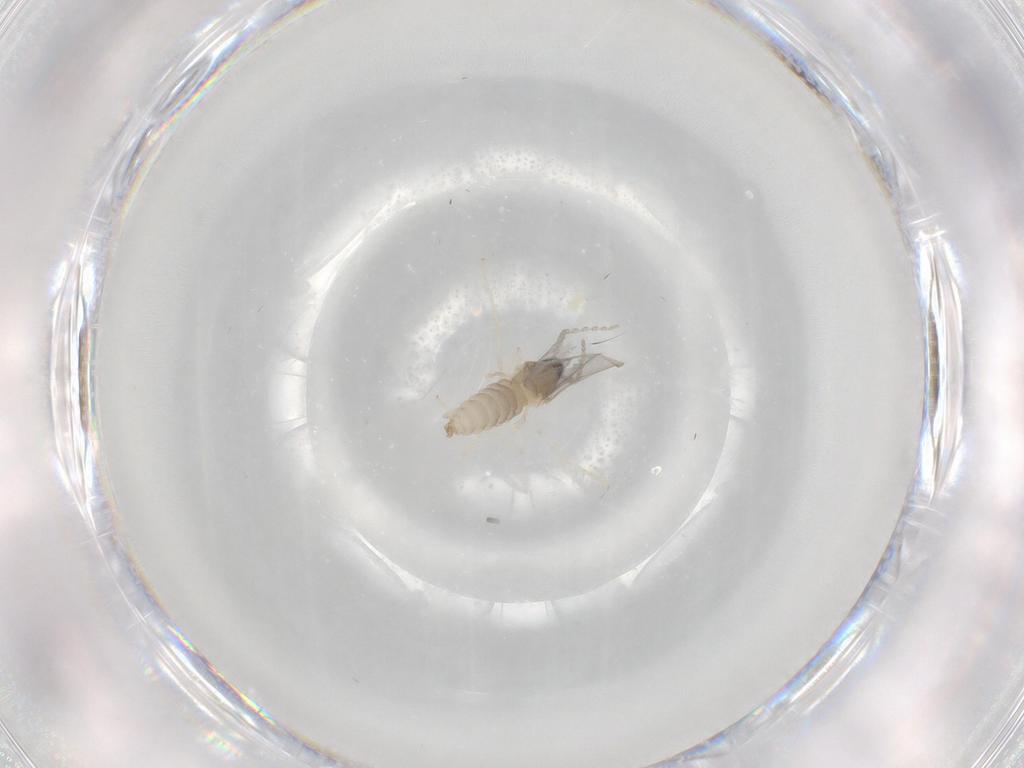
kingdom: Animalia
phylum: Arthropoda
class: Insecta
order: Diptera
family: Cecidomyiidae
